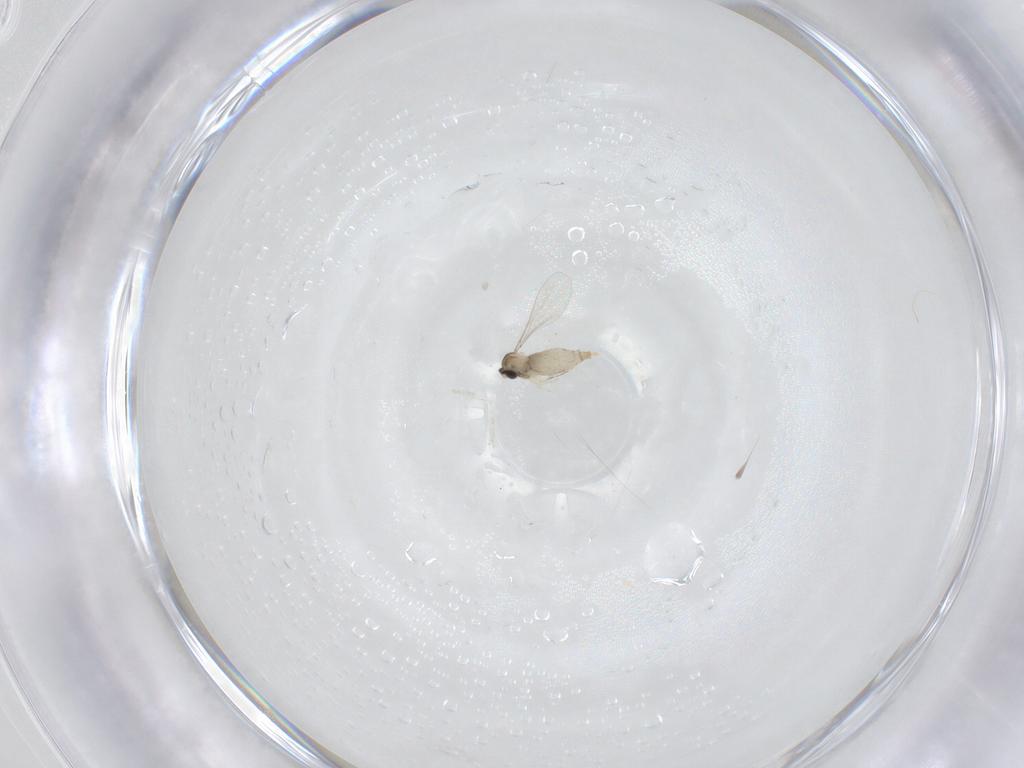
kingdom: Animalia
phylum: Arthropoda
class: Insecta
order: Diptera
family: Cecidomyiidae
